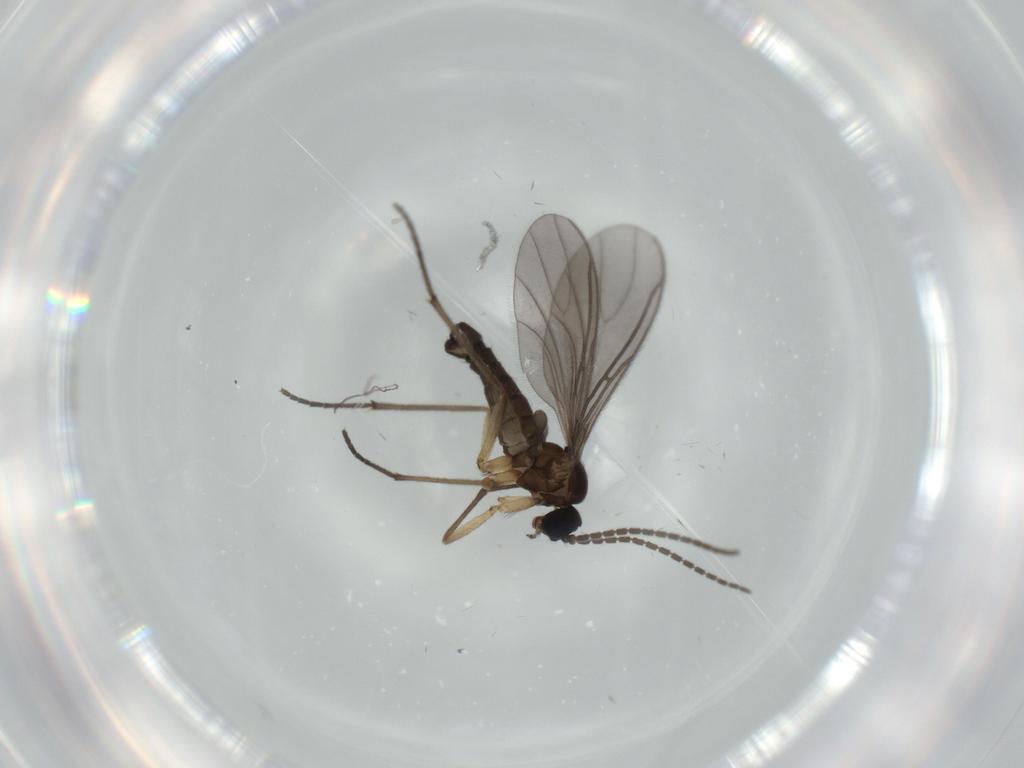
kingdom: Animalia
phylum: Arthropoda
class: Insecta
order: Diptera
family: Sciaridae
